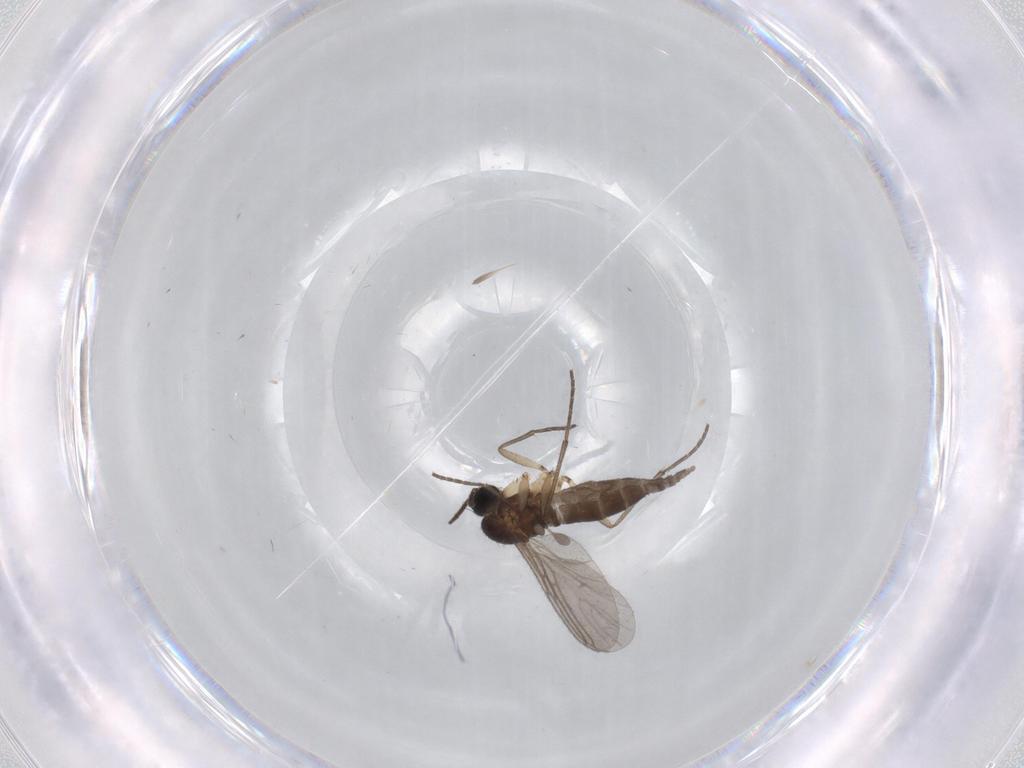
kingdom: Animalia
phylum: Arthropoda
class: Insecta
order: Diptera
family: Sciaridae
